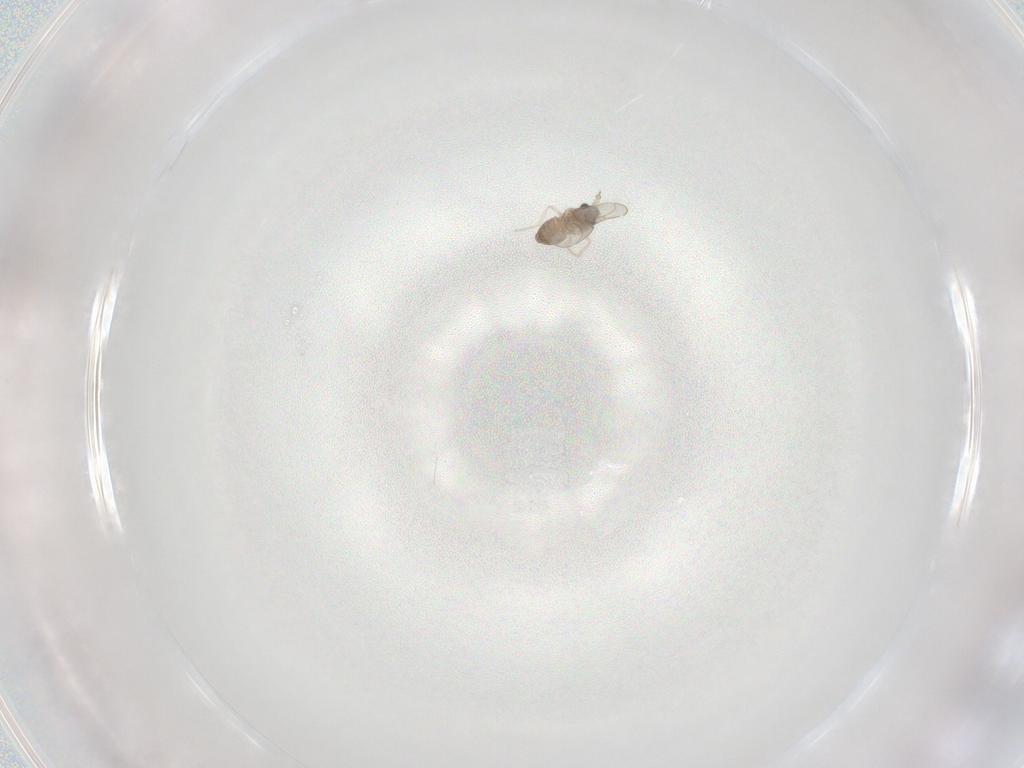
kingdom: Animalia
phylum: Arthropoda
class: Insecta
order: Diptera
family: Cecidomyiidae
